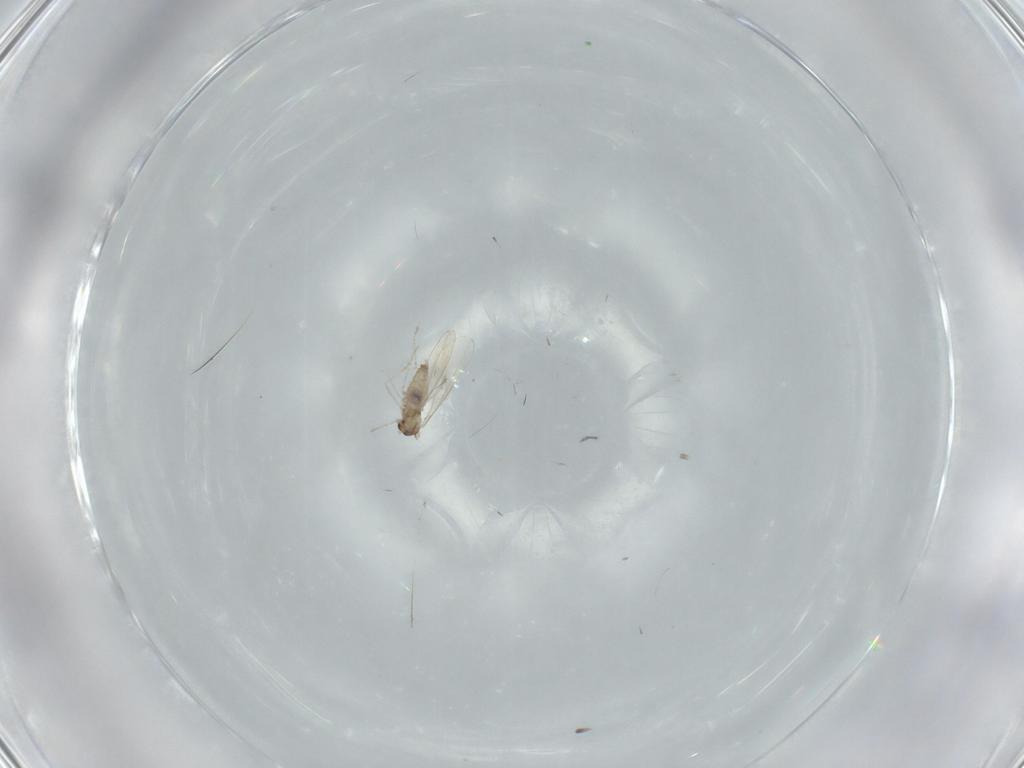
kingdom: Animalia
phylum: Arthropoda
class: Insecta
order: Diptera
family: Cecidomyiidae
